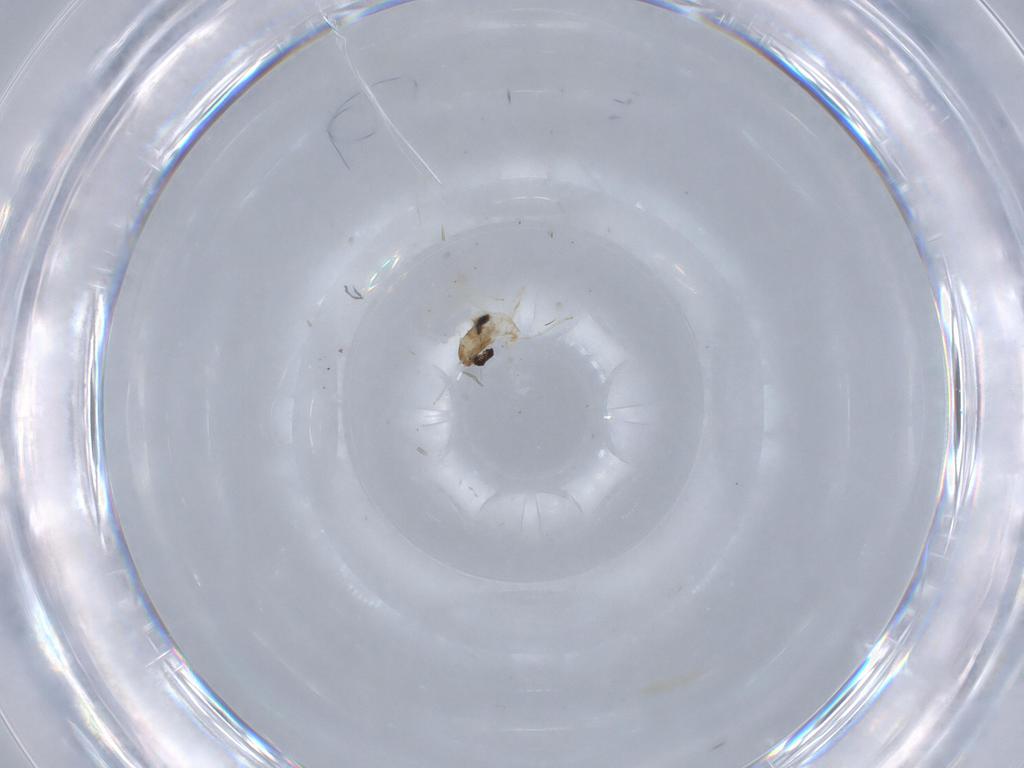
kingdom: Animalia
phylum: Arthropoda
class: Insecta
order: Diptera
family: Cecidomyiidae
